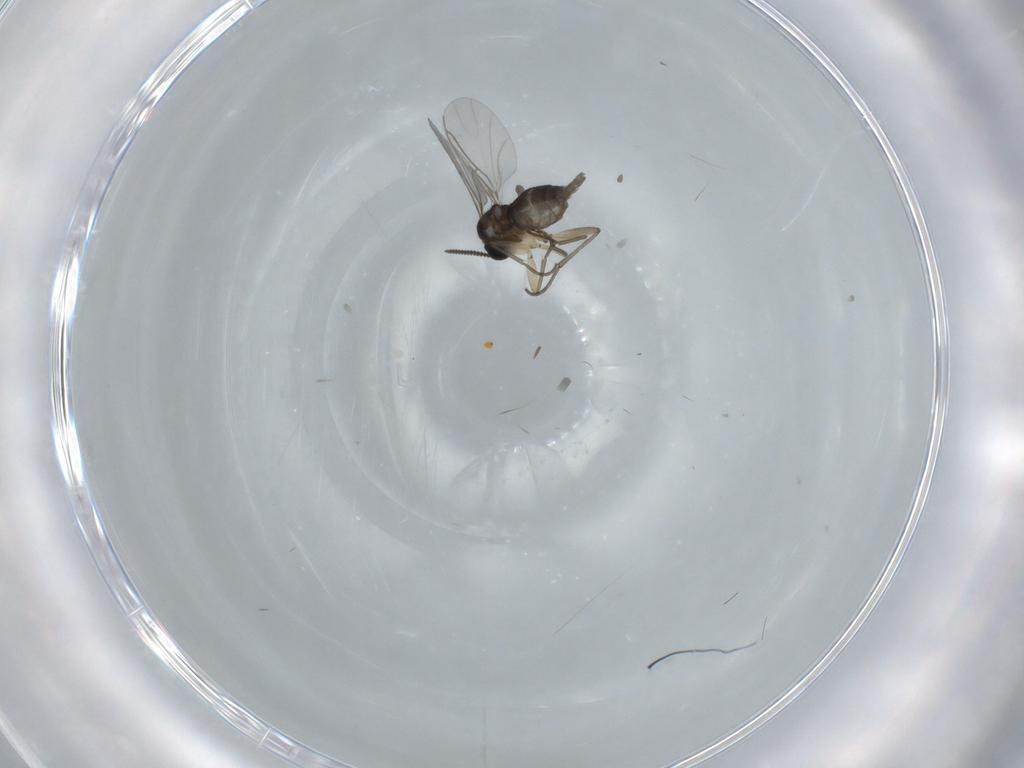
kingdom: Animalia
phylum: Arthropoda
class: Insecta
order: Diptera
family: Sciaridae
